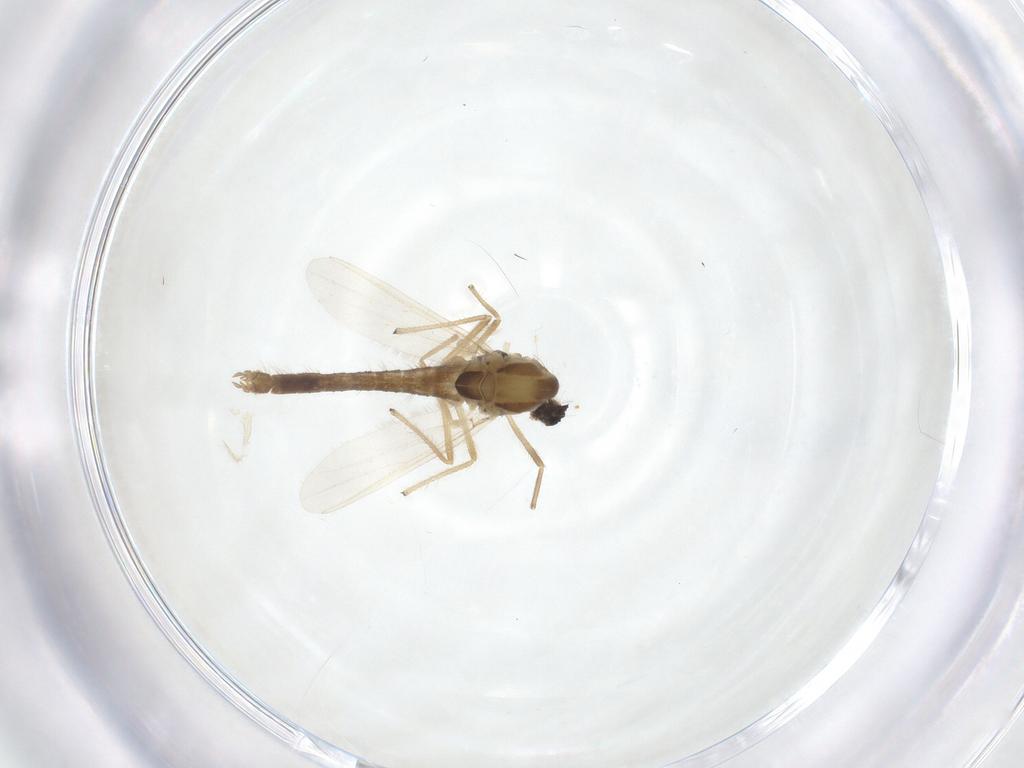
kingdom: Animalia
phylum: Arthropoda
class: Insecta
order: Diptera
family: Chironomidae
